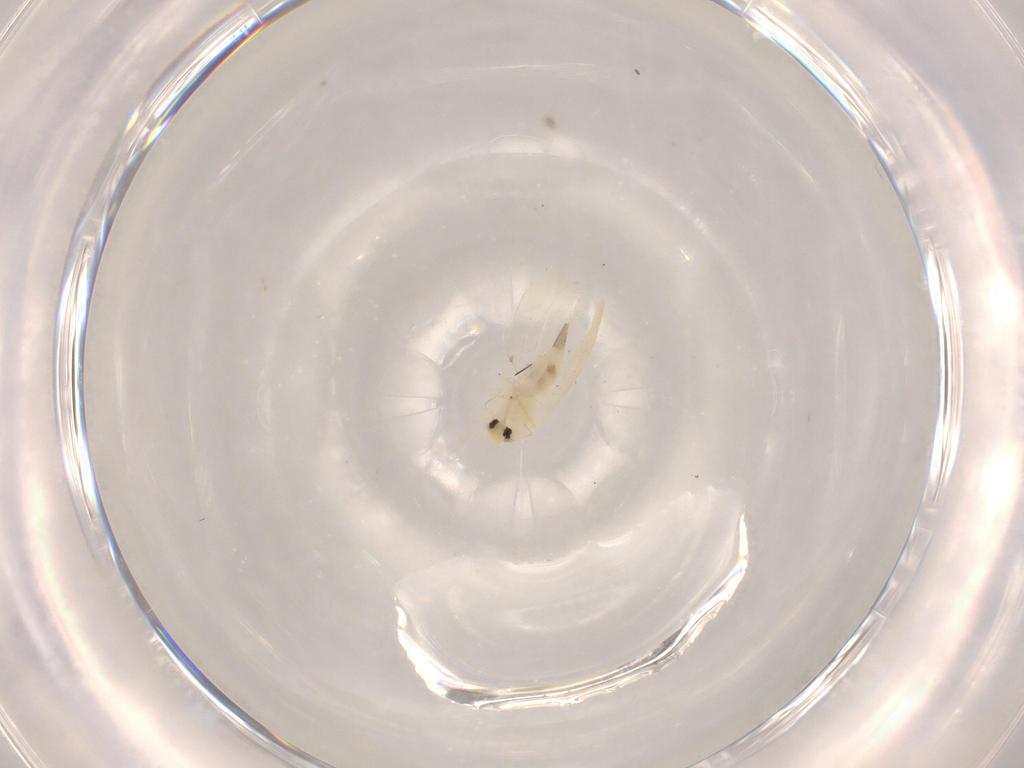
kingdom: Animalia
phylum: Arthropoda
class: Insecta
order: Hemiptera
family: Aleyrodidae
